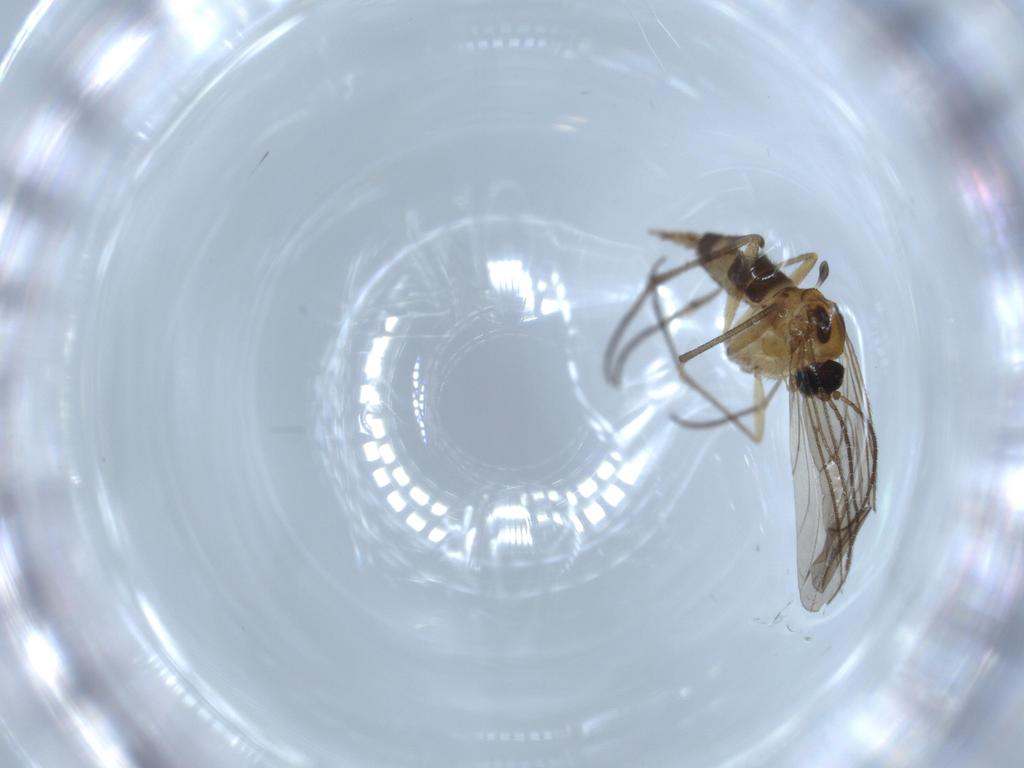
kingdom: Animalia
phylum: Arthropoda
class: Insecta
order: Diptera
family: Cecidomyiidae
